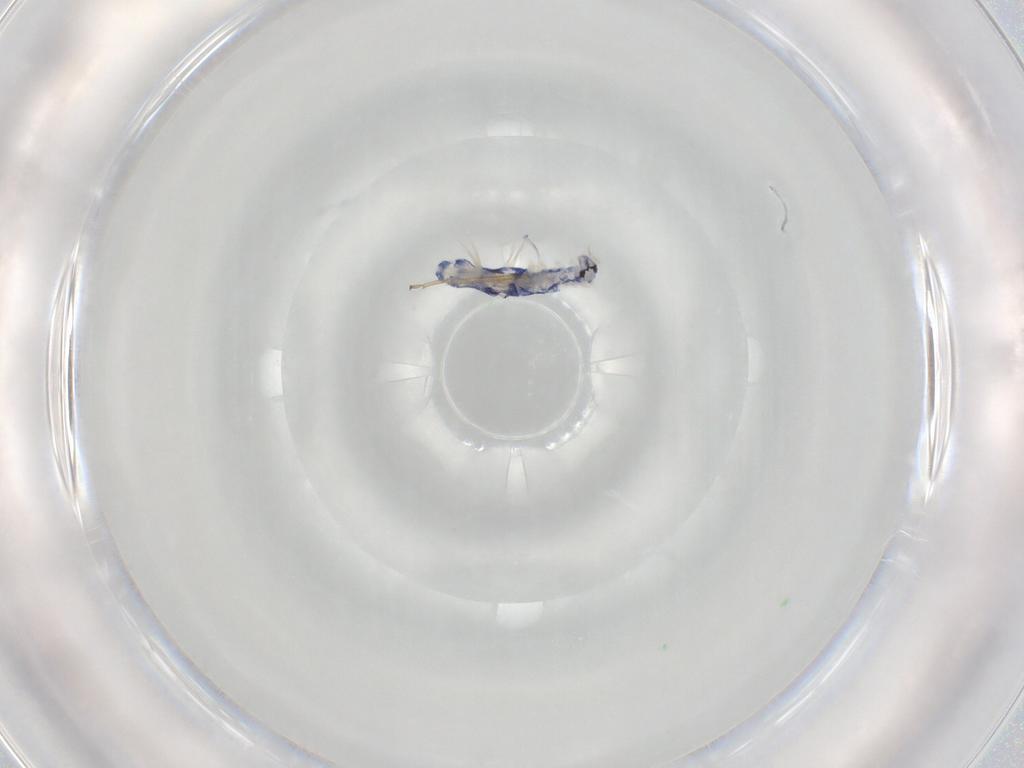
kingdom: Animalia
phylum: Arthropoda
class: Collembola
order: Entomobryomorpha
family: Entomobryidae
